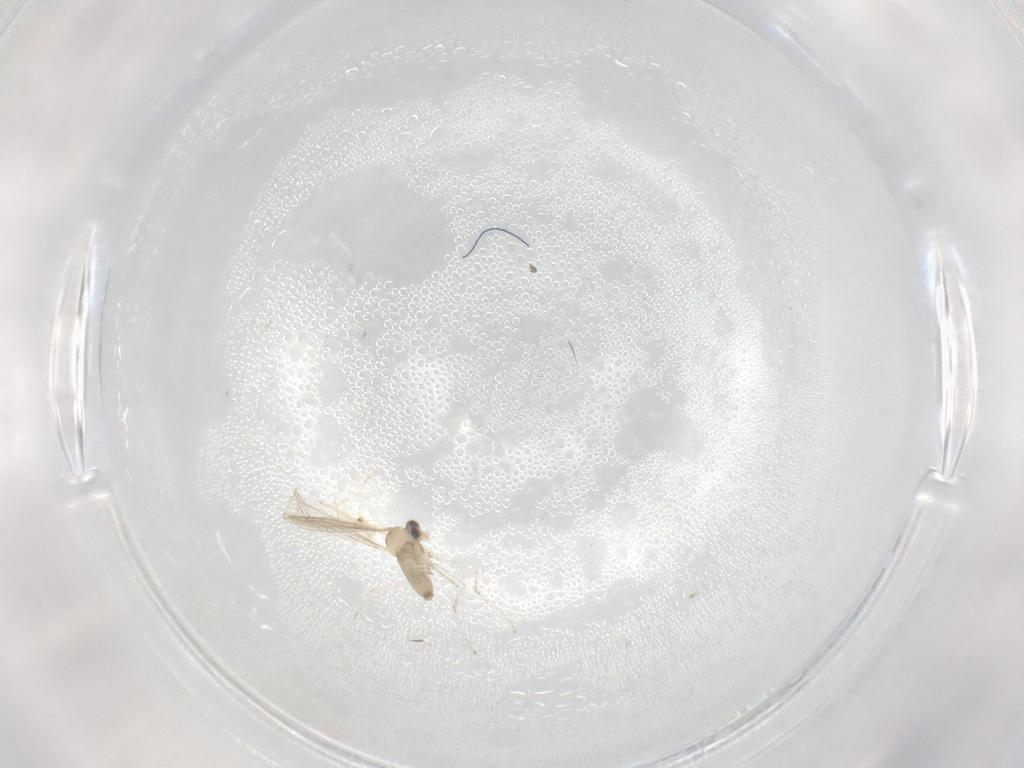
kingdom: Animalia
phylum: Arthropoda
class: Insecta
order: Diptera
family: Cecidomyiidae
